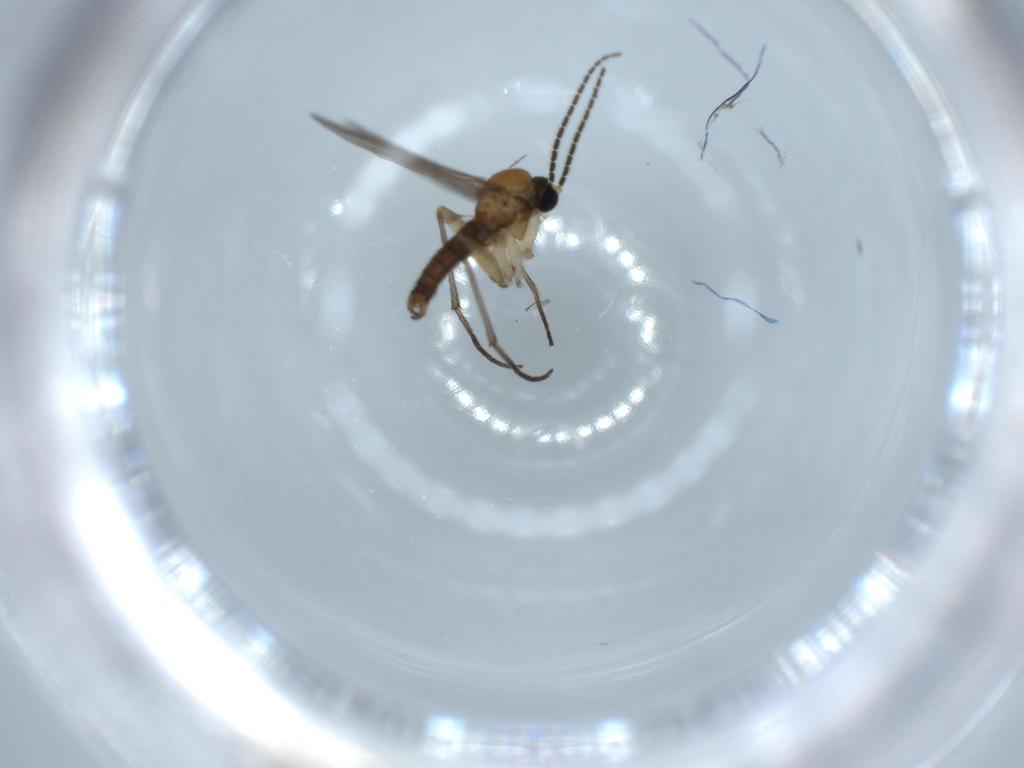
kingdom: Animalia
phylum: Arthropoda
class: Insecta
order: Diptera
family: Sciaridae
